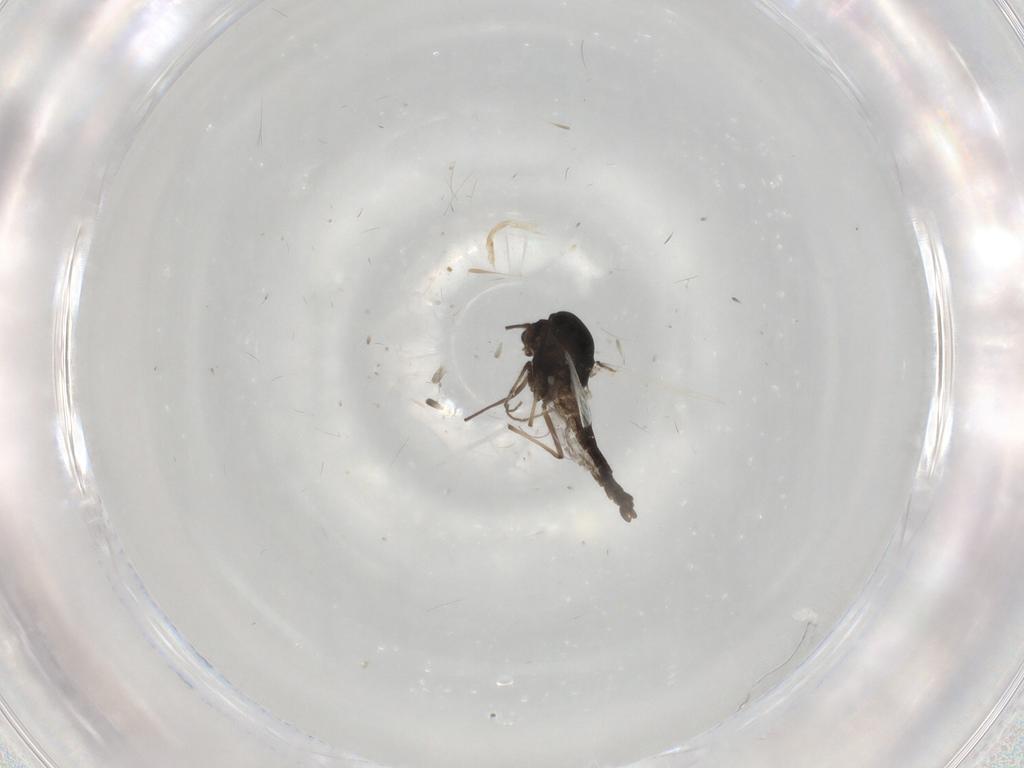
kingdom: Animalia
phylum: Arthropoda
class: Insecta
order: Diptera
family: Chironomidae
